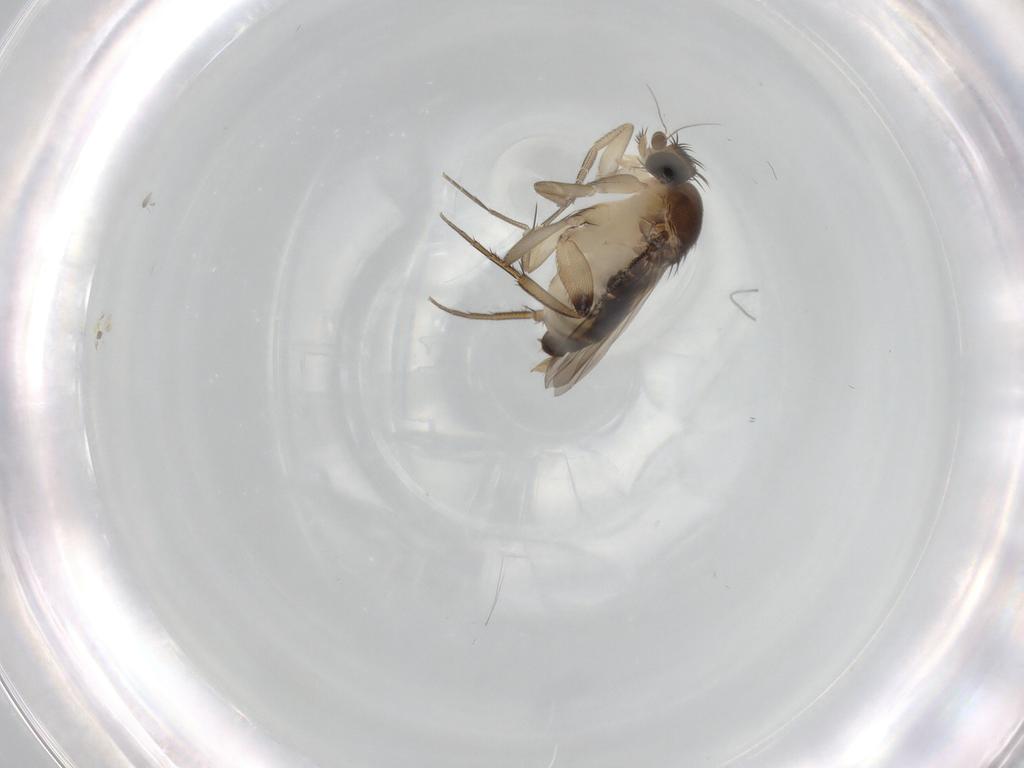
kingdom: Animalia
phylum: Arthropoda
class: Insecta
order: Diptera
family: Phoridae
